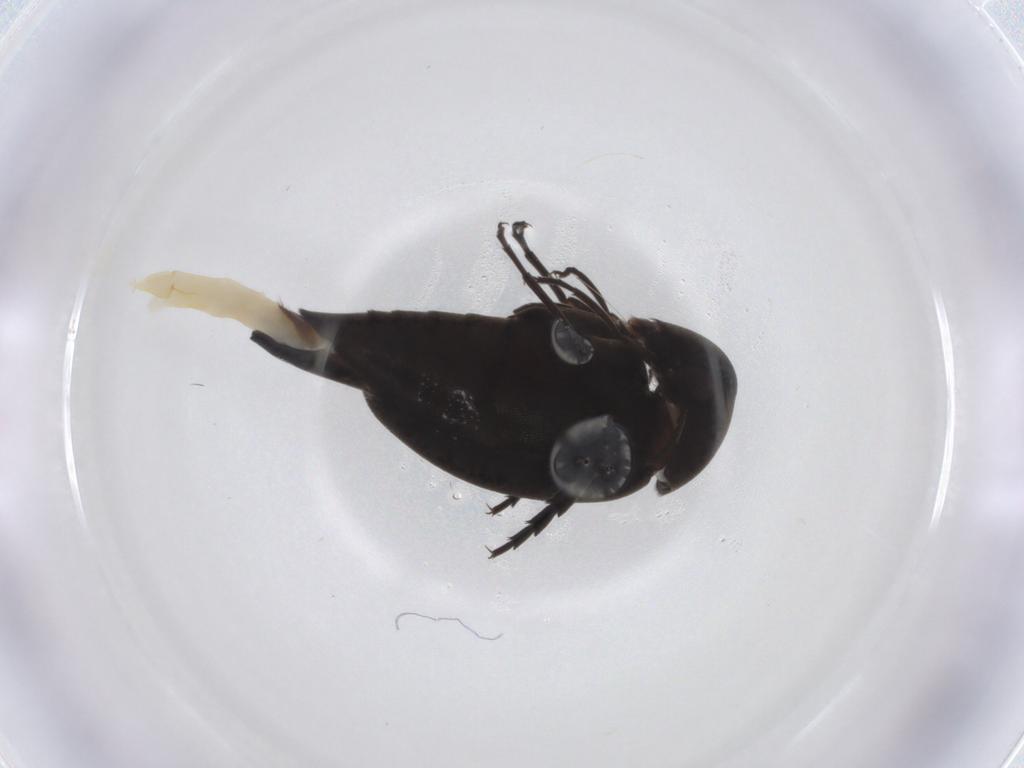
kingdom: Animalia
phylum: Arthropoda
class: Insecta
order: Coleoptera
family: Mordellidae
